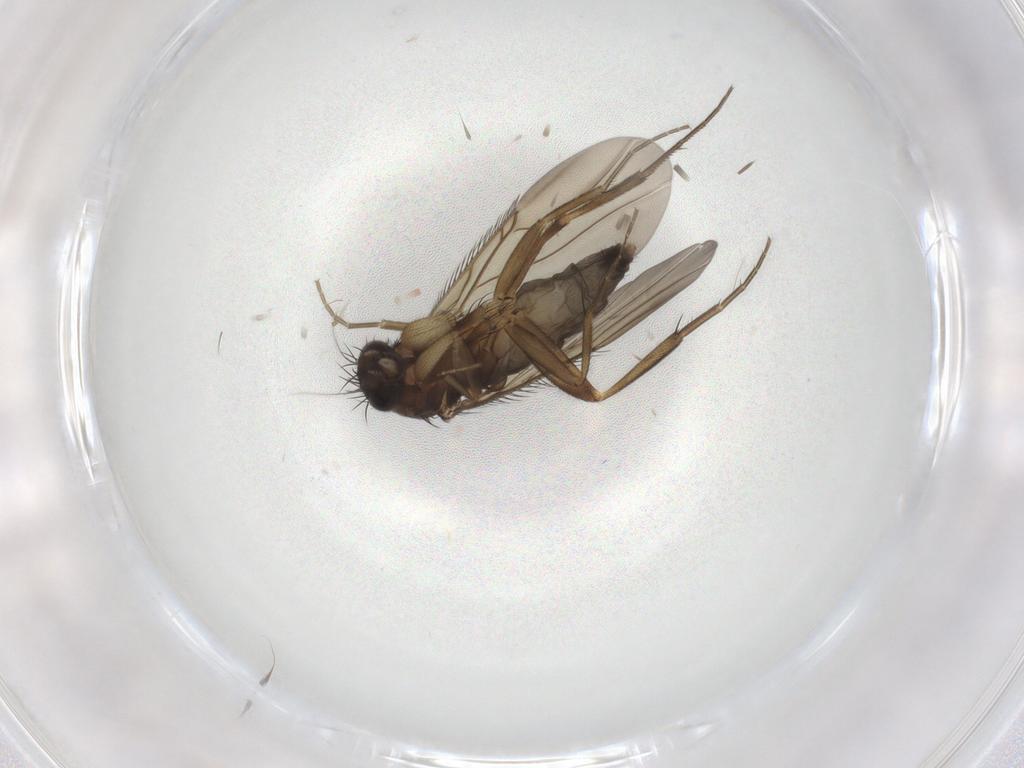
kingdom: Animalia
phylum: Arthropoda
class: Insecta
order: Diptera
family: Phoridae
